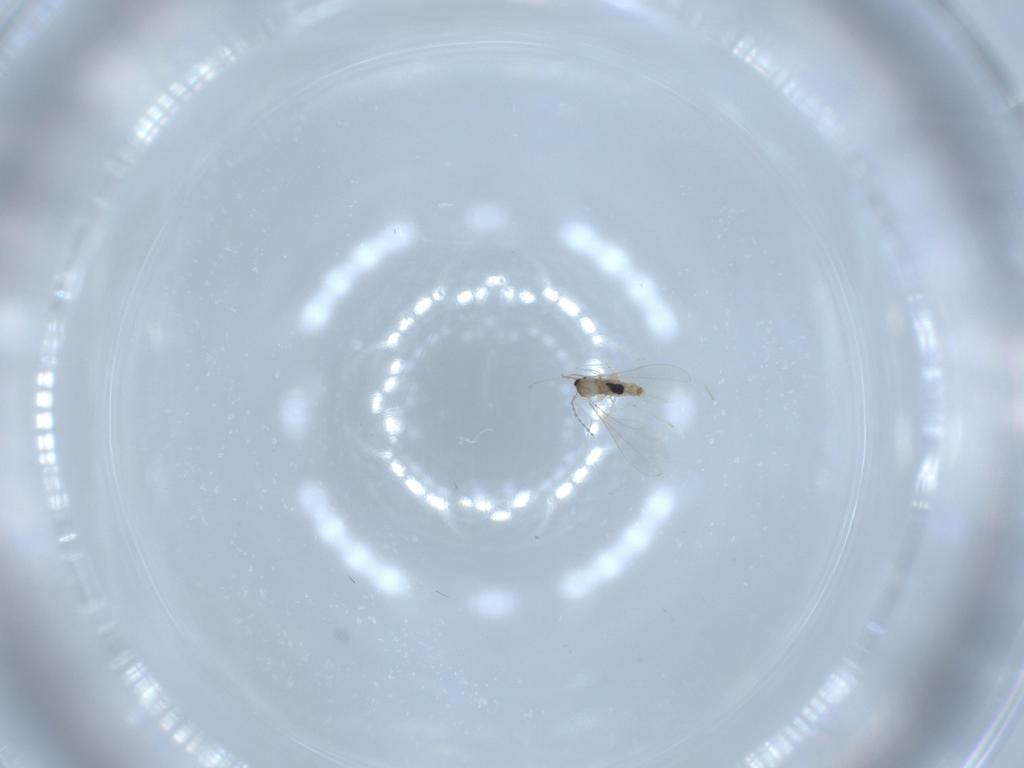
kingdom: Animalia
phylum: Arthropoda
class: Insecta
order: Diptera
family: Cecidomyiidae
